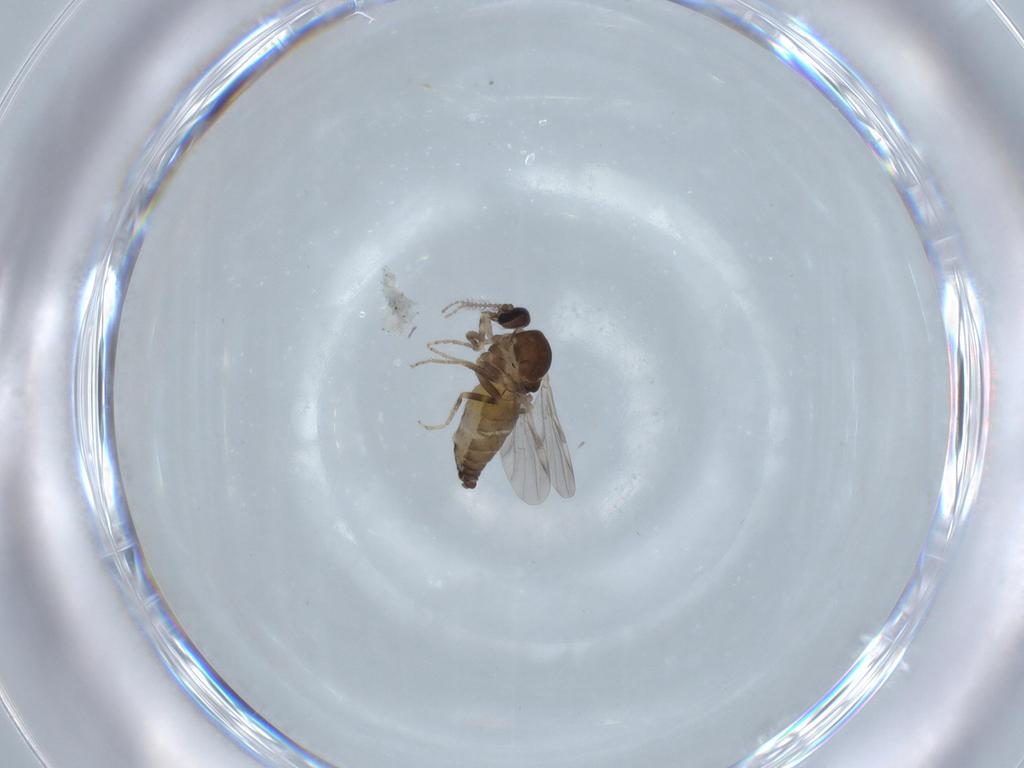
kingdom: Animalia
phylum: Arthropoda
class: Insecta
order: Diptera
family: Ceratopogonidae
